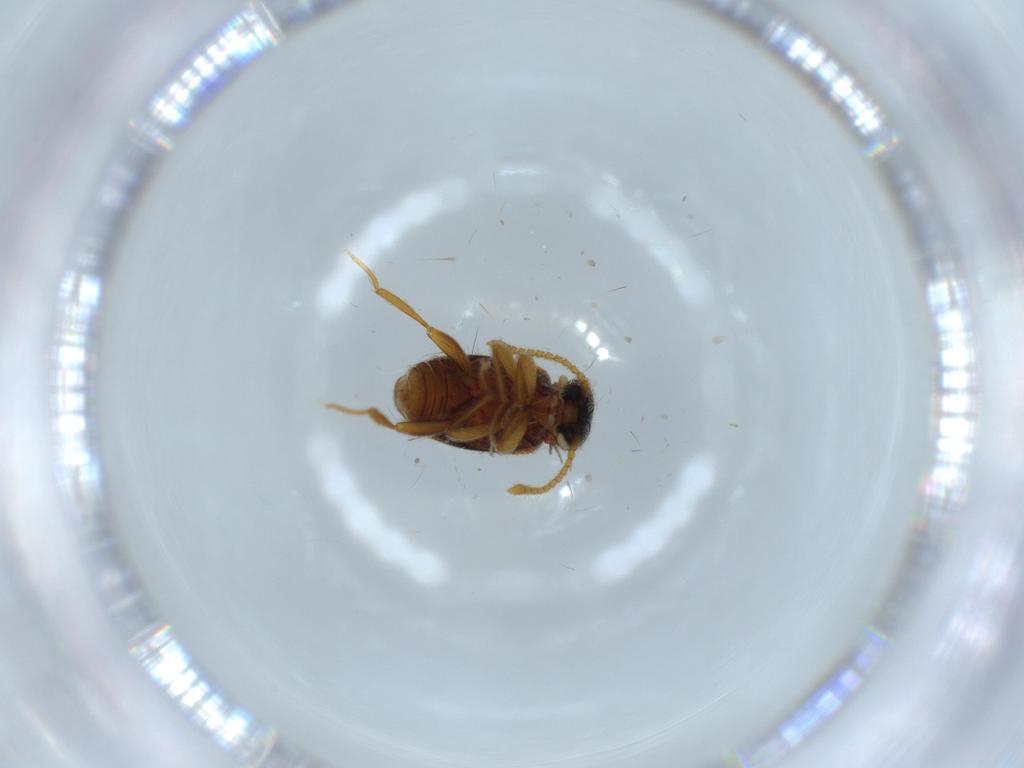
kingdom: Animalia
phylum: Arthropoda
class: Insecta
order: Coleoptera
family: Aderidae
